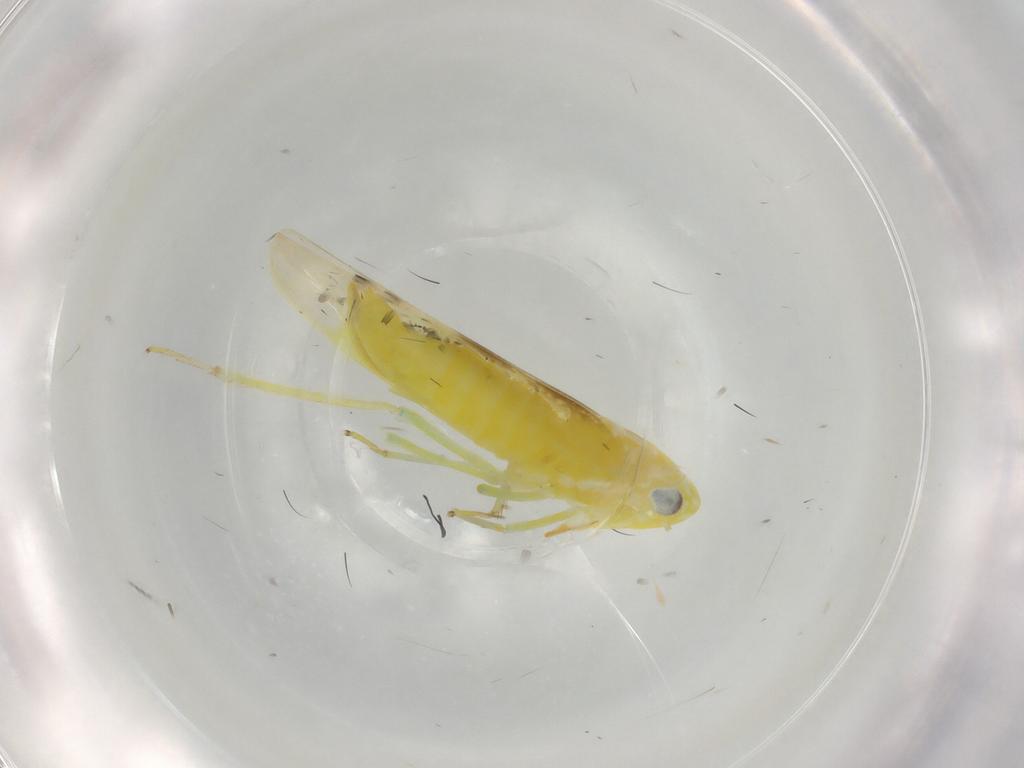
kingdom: Animalia
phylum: Arthropoda
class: Insecta
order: Hemiptera
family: Cicadellidae
